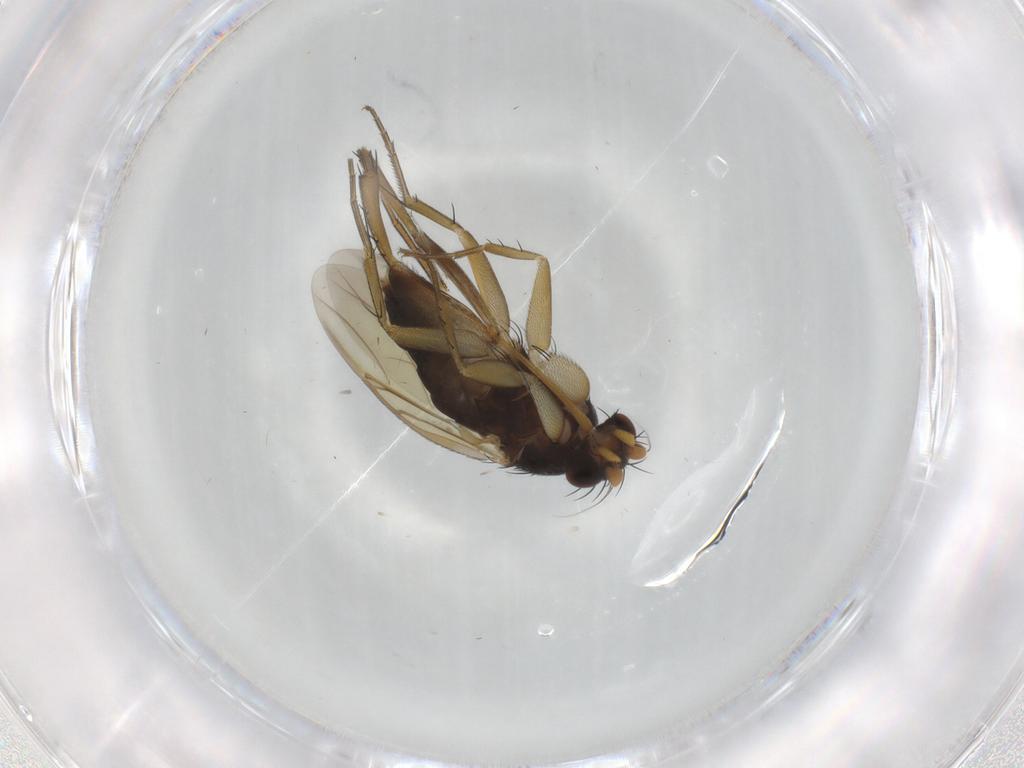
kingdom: Animalia
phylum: Arthropoda
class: Insecta
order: Diptera
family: Phoridae
